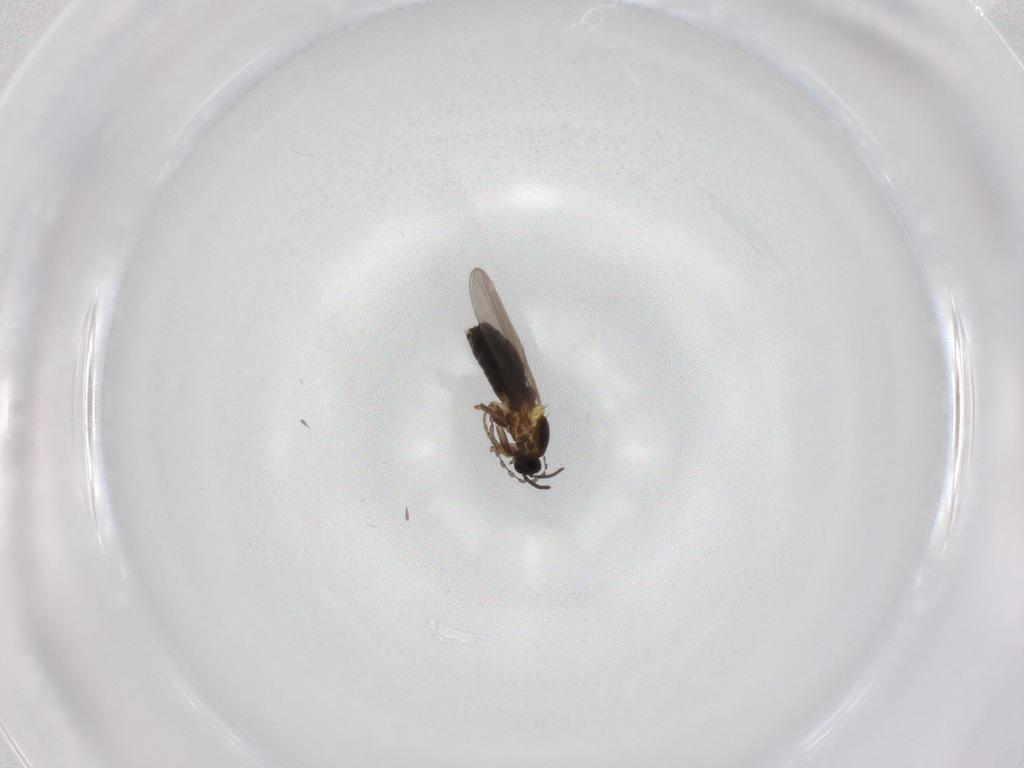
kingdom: Animalia
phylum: Arthropoda
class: Insecta
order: Diptera
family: Scatopsidae
